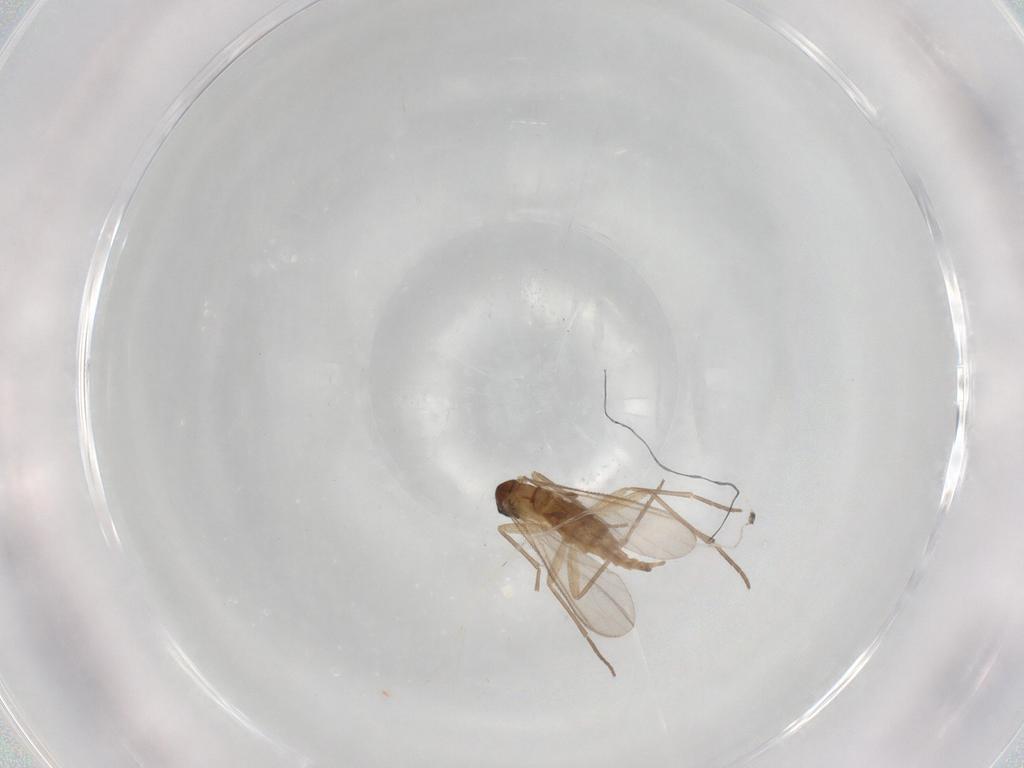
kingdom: Animalia
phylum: Arthropoda
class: Insecta
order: Diptera
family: Sciaridae
